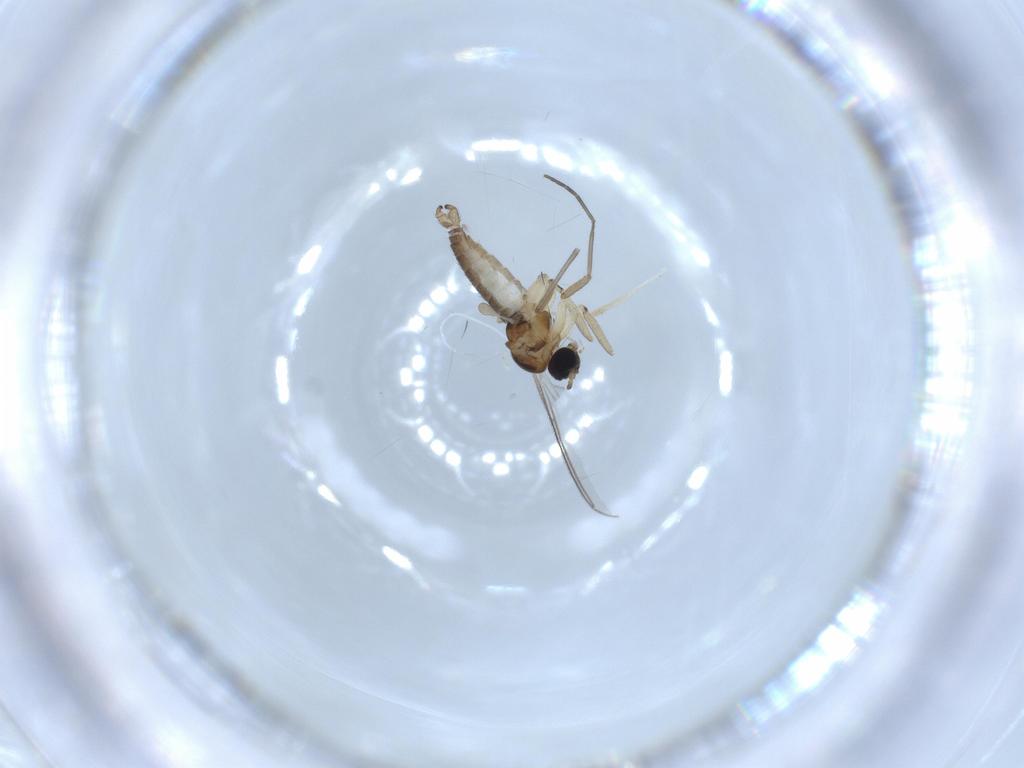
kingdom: Animalia
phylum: Arthropoda
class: Insecta
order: Diptera
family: Chironomidae
